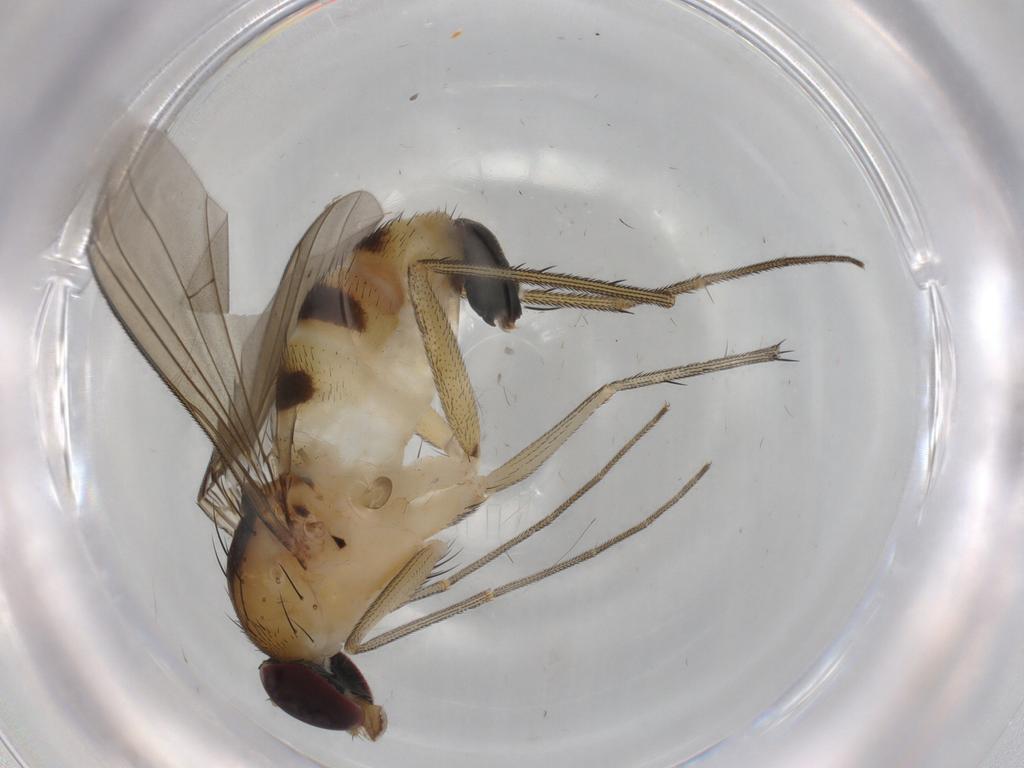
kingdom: Animalia
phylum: Arthropoda
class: Insecta
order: Diptera
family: Dolichopodidae
